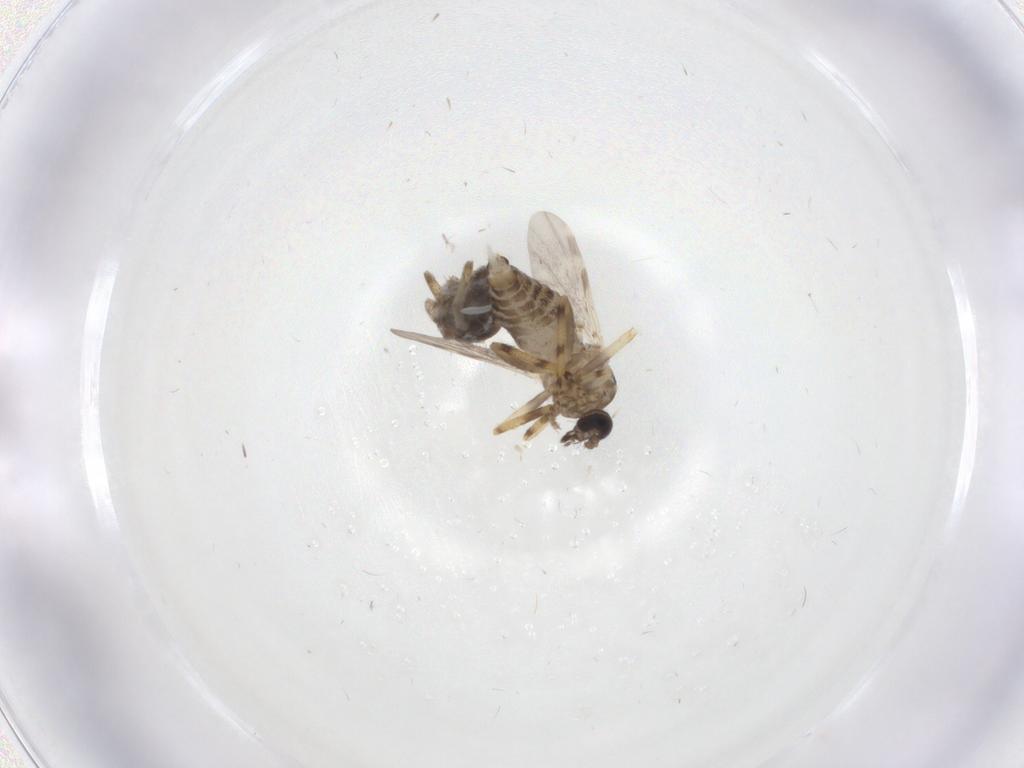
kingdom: Animalia
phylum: Arthropoda
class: Insecta
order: Diptera
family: Ceratopogonidae
